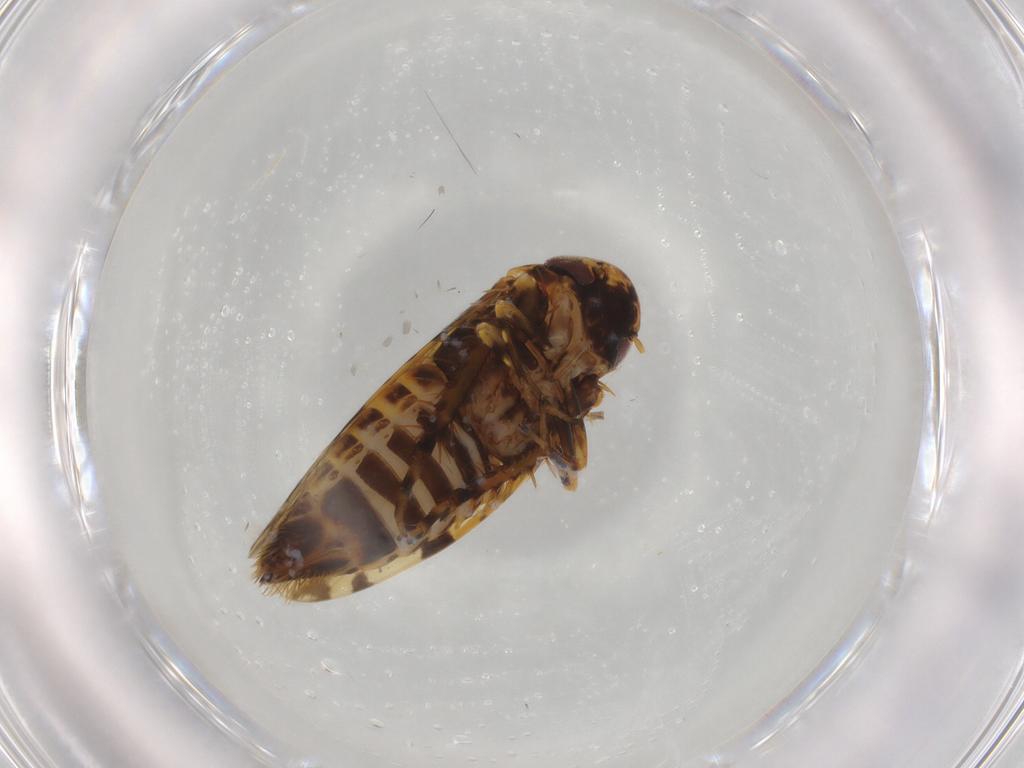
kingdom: Animalia
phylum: Arthropoda
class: Insecta
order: Hemiptera
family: Cicadellidae
